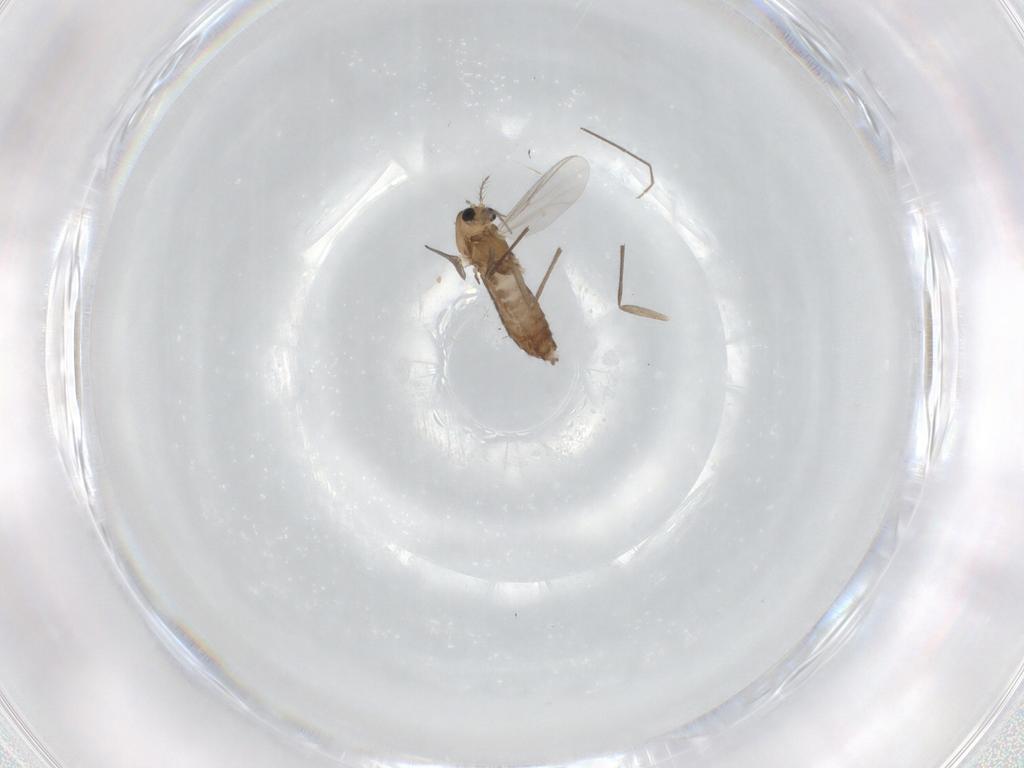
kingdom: Animalia
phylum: Arthropoda
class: Insecta
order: Diptera
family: Chironomidae
